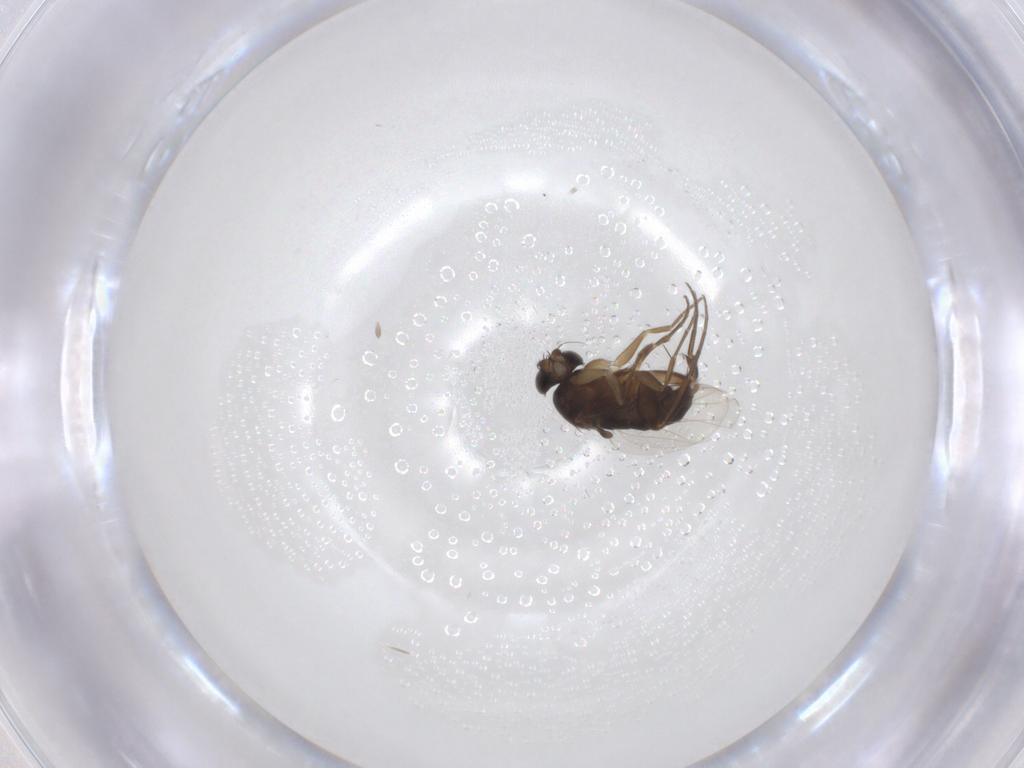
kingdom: Animalia
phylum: Arthropoda
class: Insecta
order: Diptera
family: Phoridae
